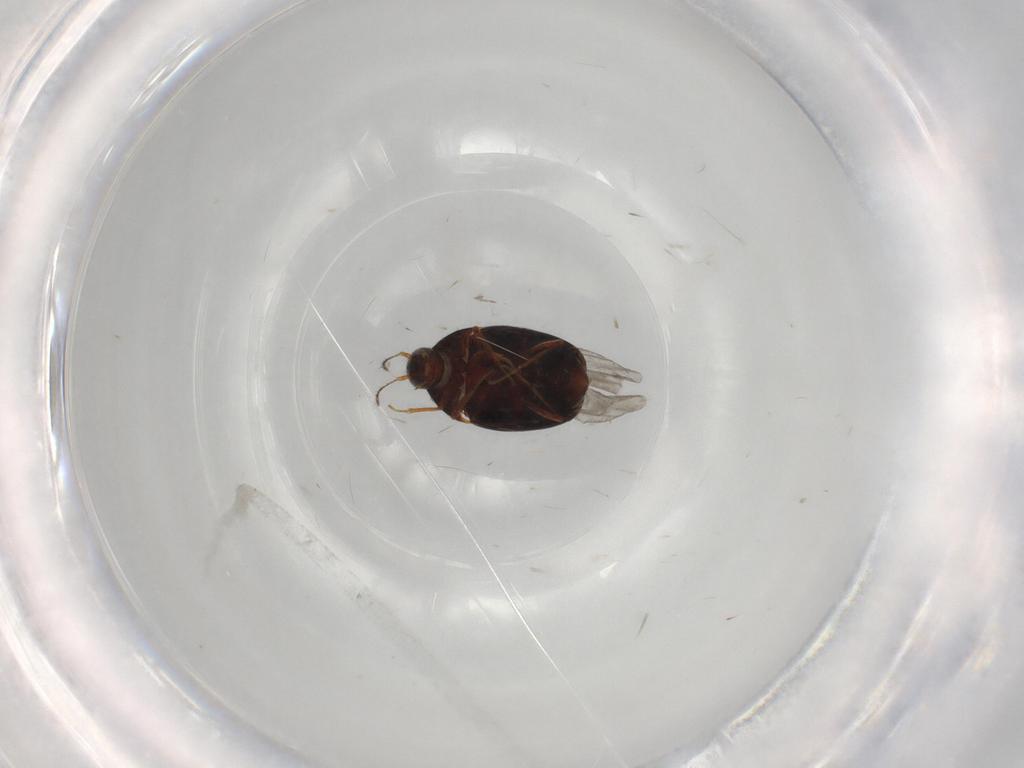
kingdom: Animalia
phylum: Arthropoda
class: Insecta
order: Coleoptera
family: Staphylinidae
